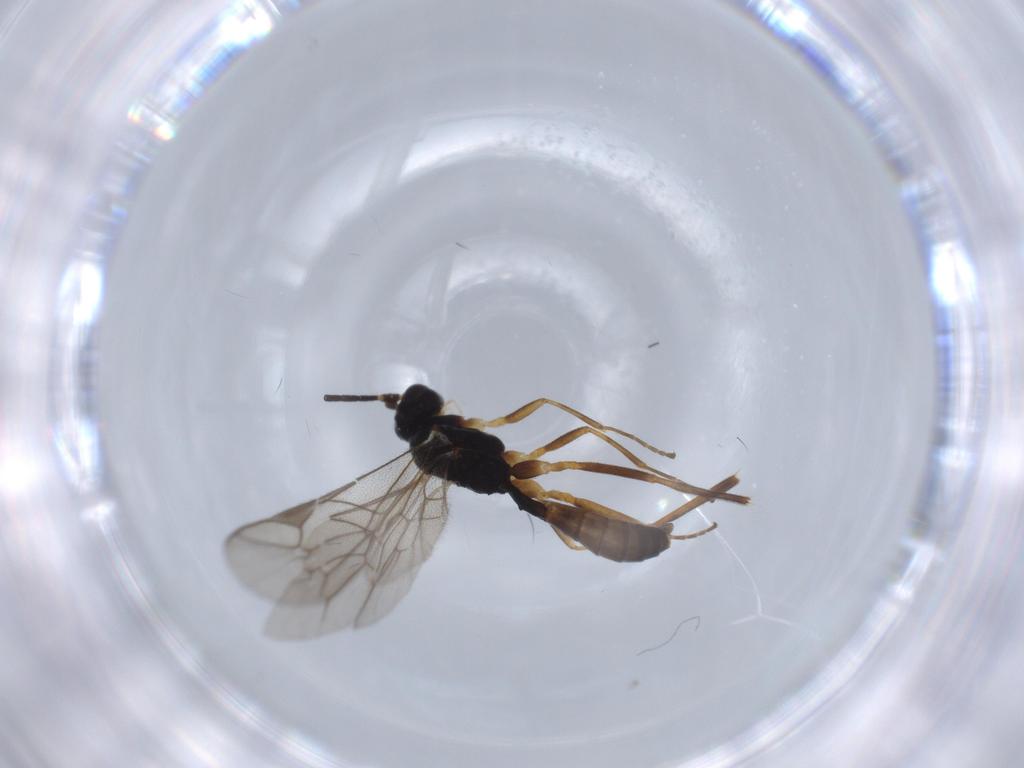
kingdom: Animalia
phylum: Arthropoda
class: Insecta
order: Hymenoptera
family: Ichneumonidae
